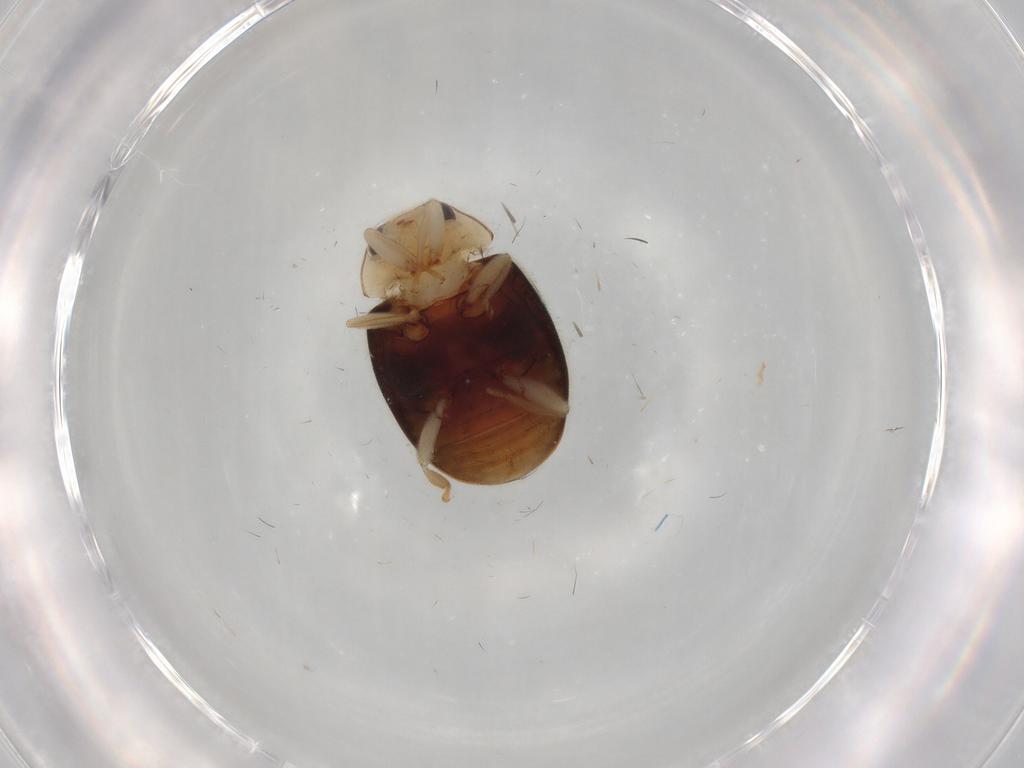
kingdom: Animalia
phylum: Arthropoda
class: Insecta
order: Coleoptera
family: Coccinellidae
